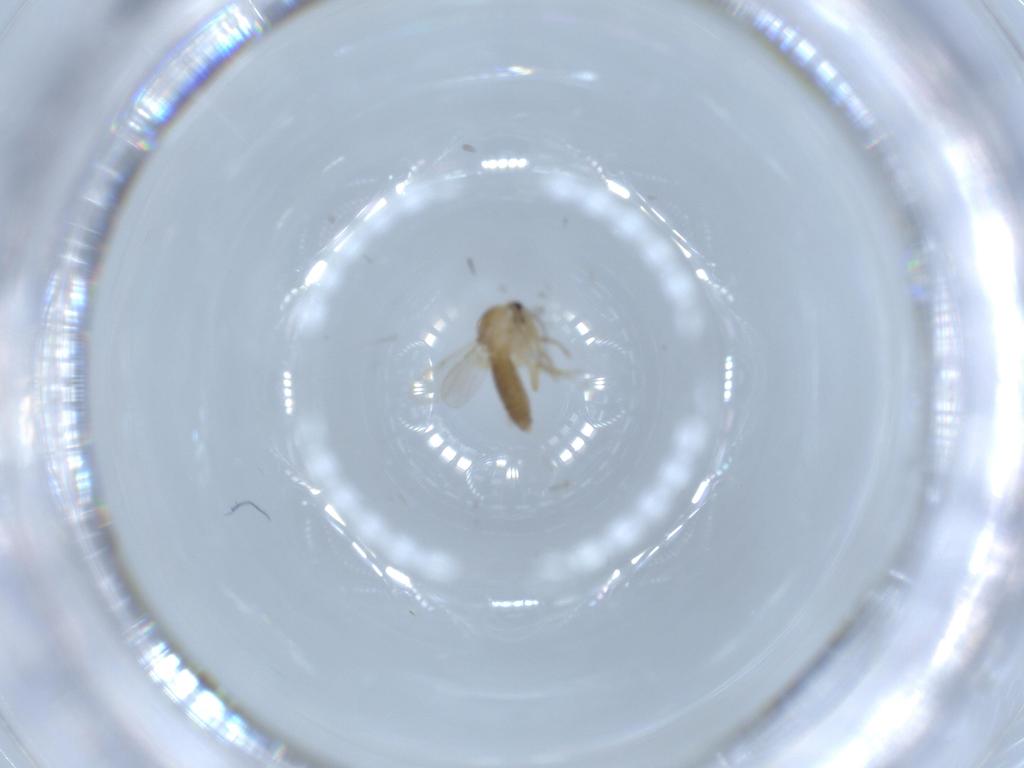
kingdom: Animalia
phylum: Arthropoda
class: Insecta
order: Diptera
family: Ceratopogonidae
